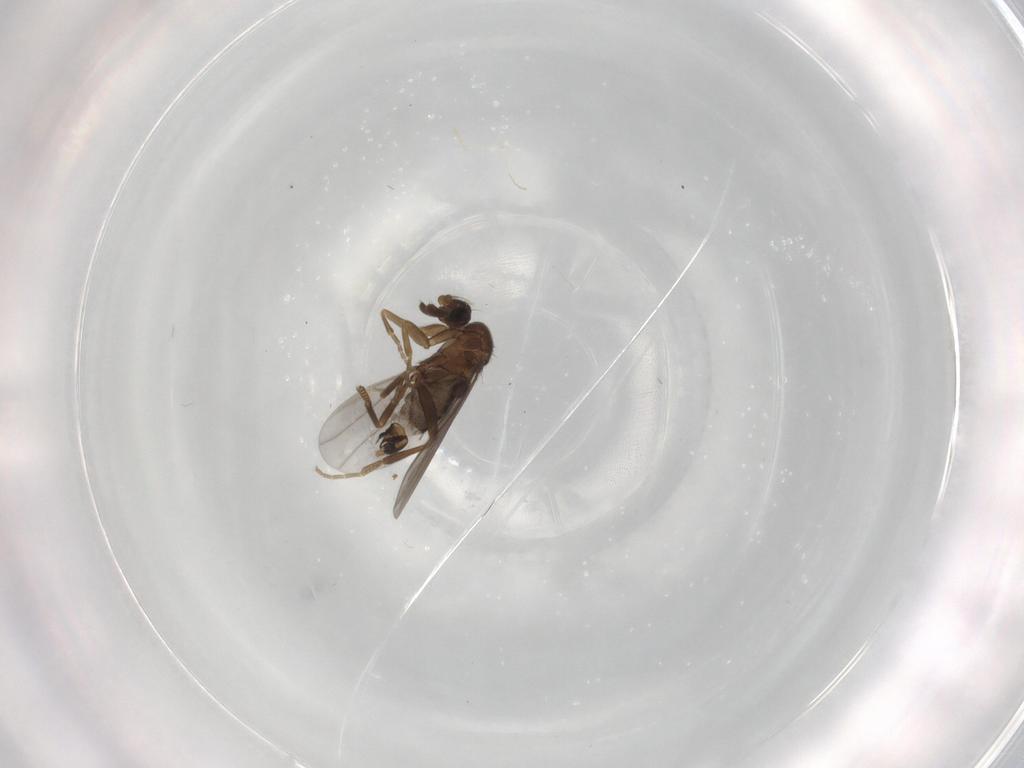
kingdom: Animalia
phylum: Arthropoda
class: Insecta
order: Diptera
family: Phoridae
